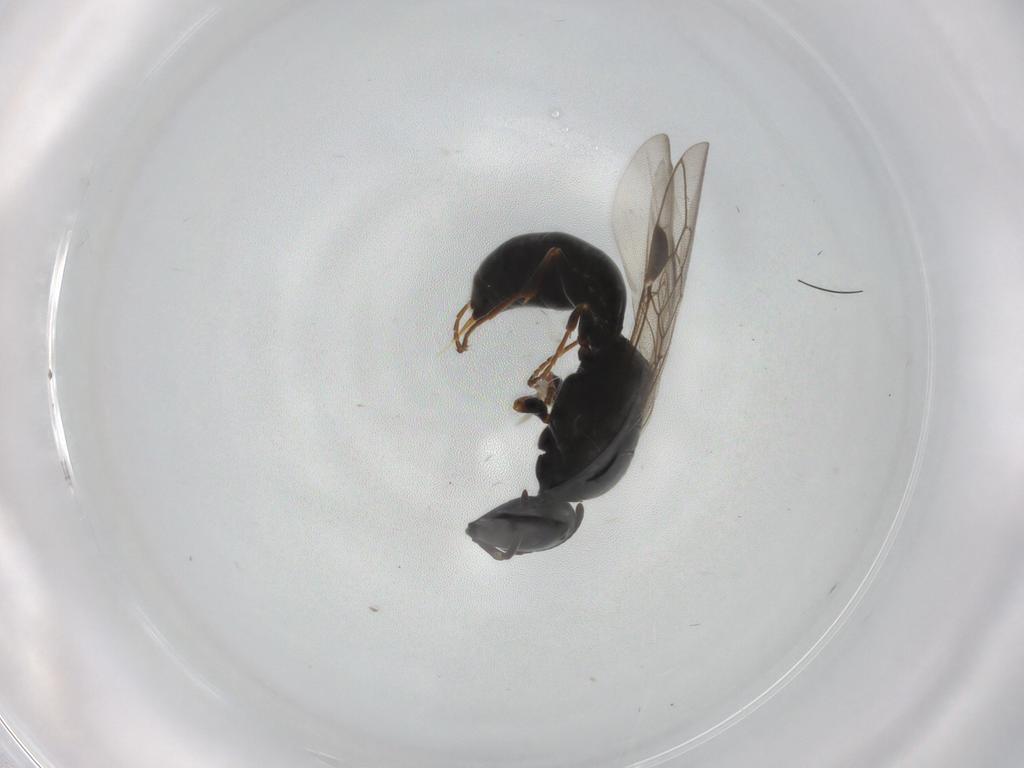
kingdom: Animalia
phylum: Arthropoda
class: Insecta
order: Hymenoptera
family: Pemphredonidae
